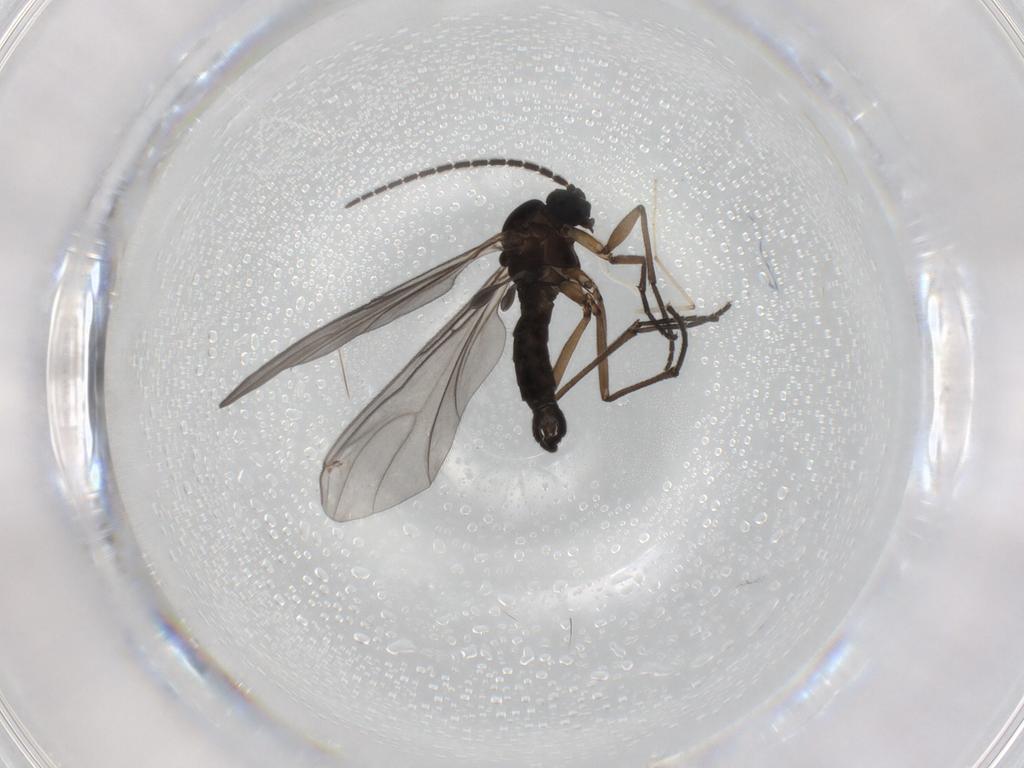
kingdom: Animalia
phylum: Arthropoda
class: Insecta
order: Diptera
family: Sciaridae
